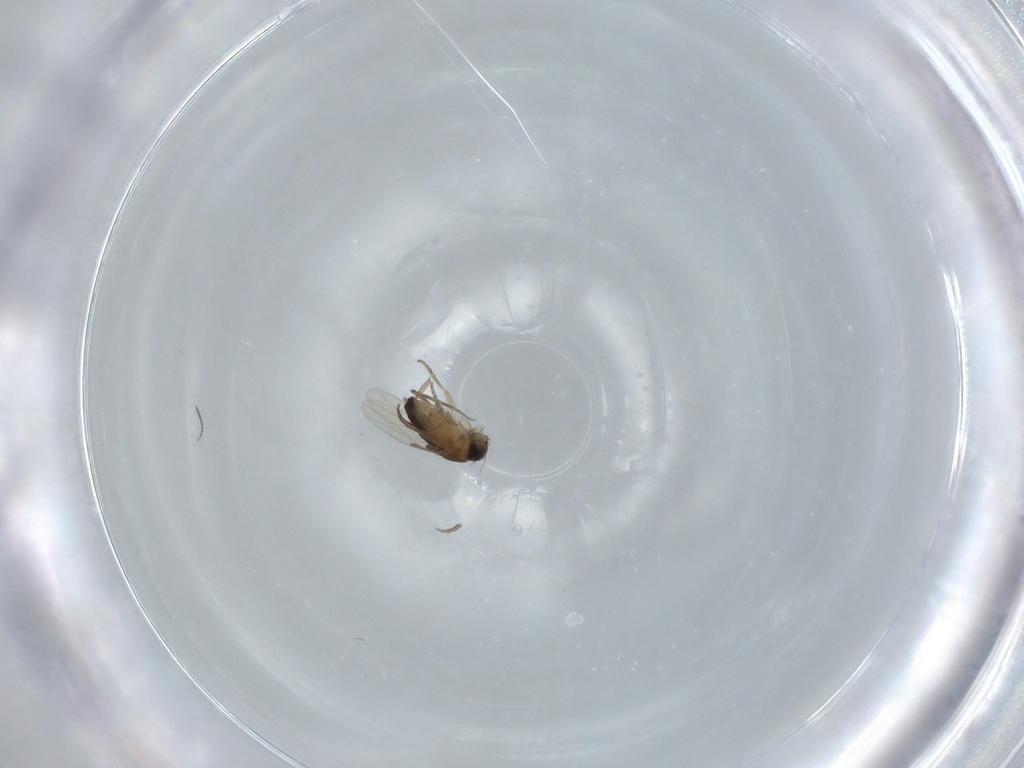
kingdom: Animalia
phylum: Arthropoda
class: Insecta
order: Diptera
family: Phoridae
